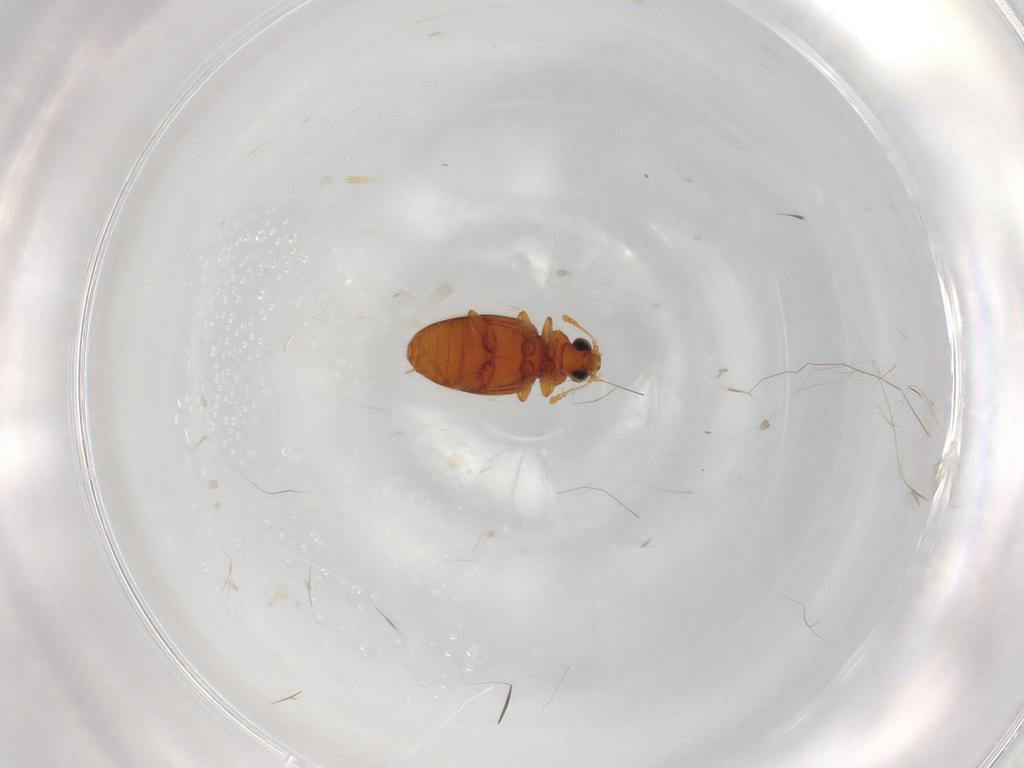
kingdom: Animalia
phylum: Arthropoda
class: Insecta
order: Coleoptera
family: Latridiidae
